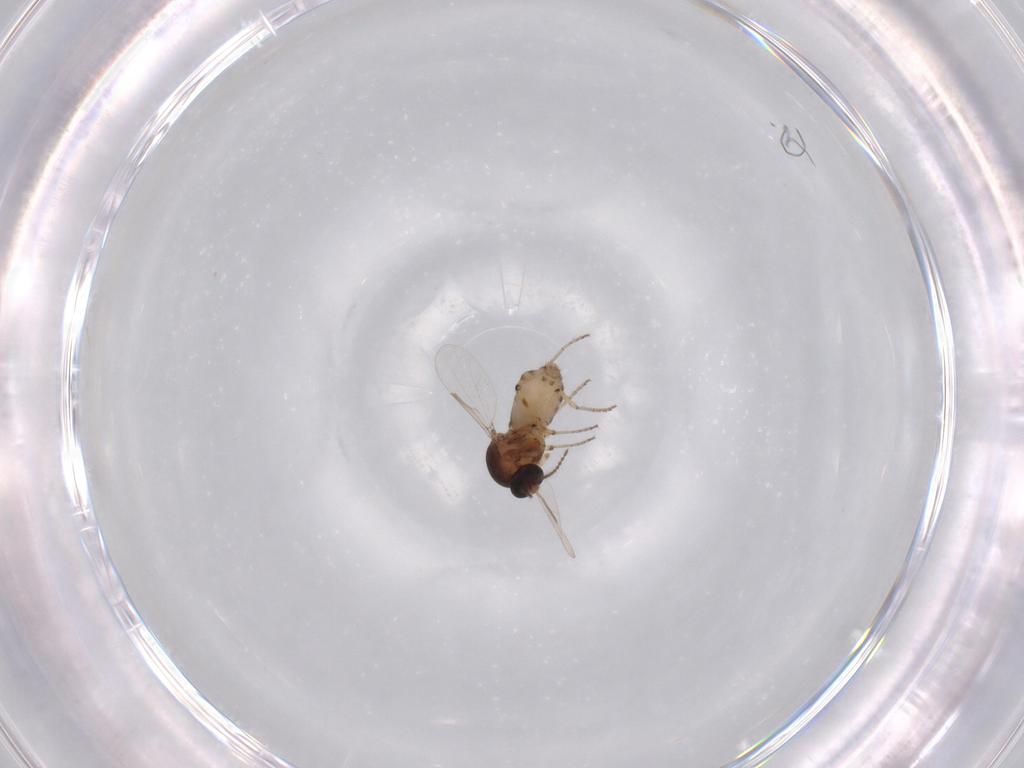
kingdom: Animalia
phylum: Arthropoda
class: Insecta
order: Diptera
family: Ceratopogonidae
